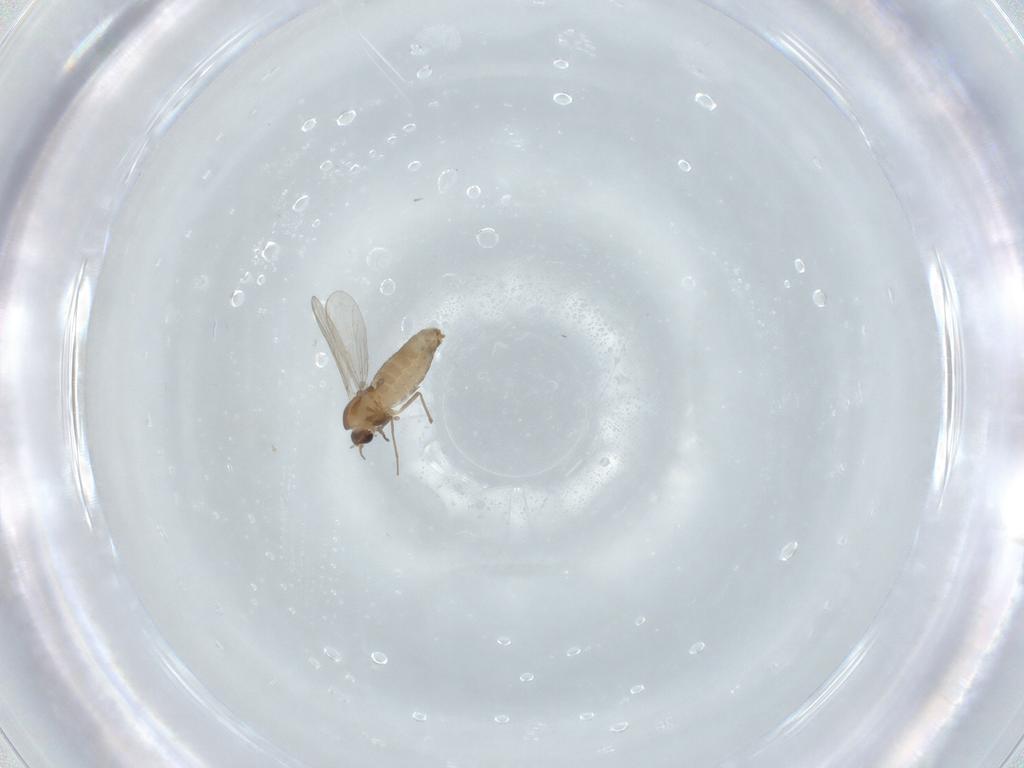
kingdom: Animalia
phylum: Arthropoda
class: Insecta
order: Diptera
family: Chironomidae
